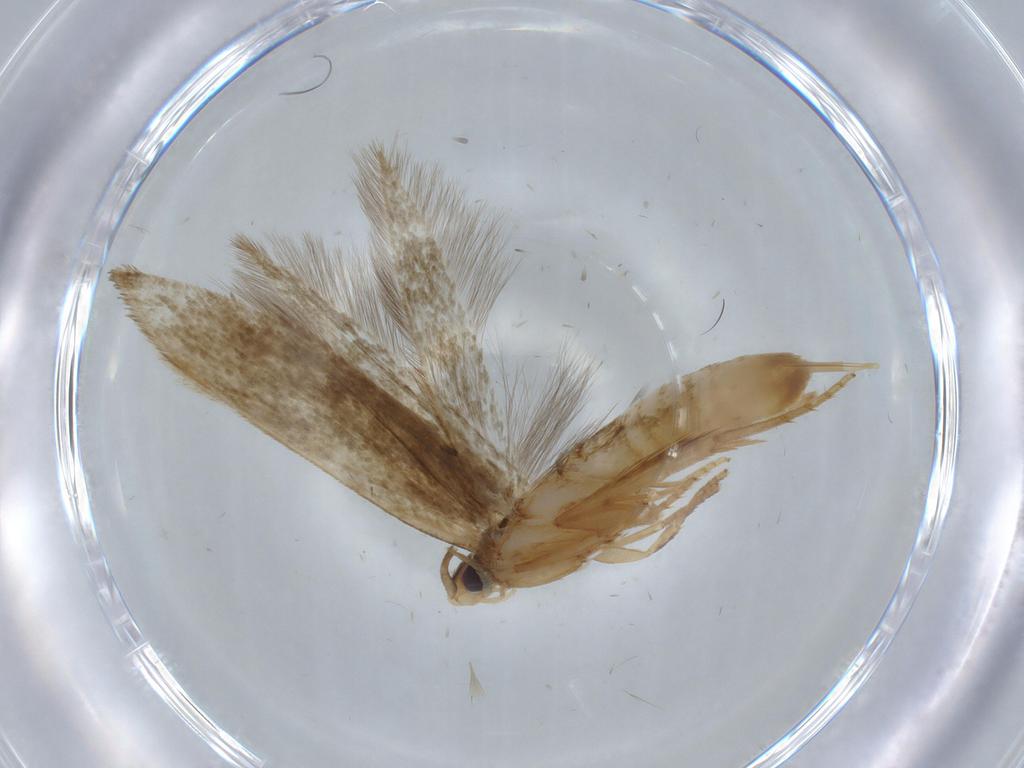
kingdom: Animalia
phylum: Arthropoda
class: Insecta
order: Lepidoptera
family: Tineidae
